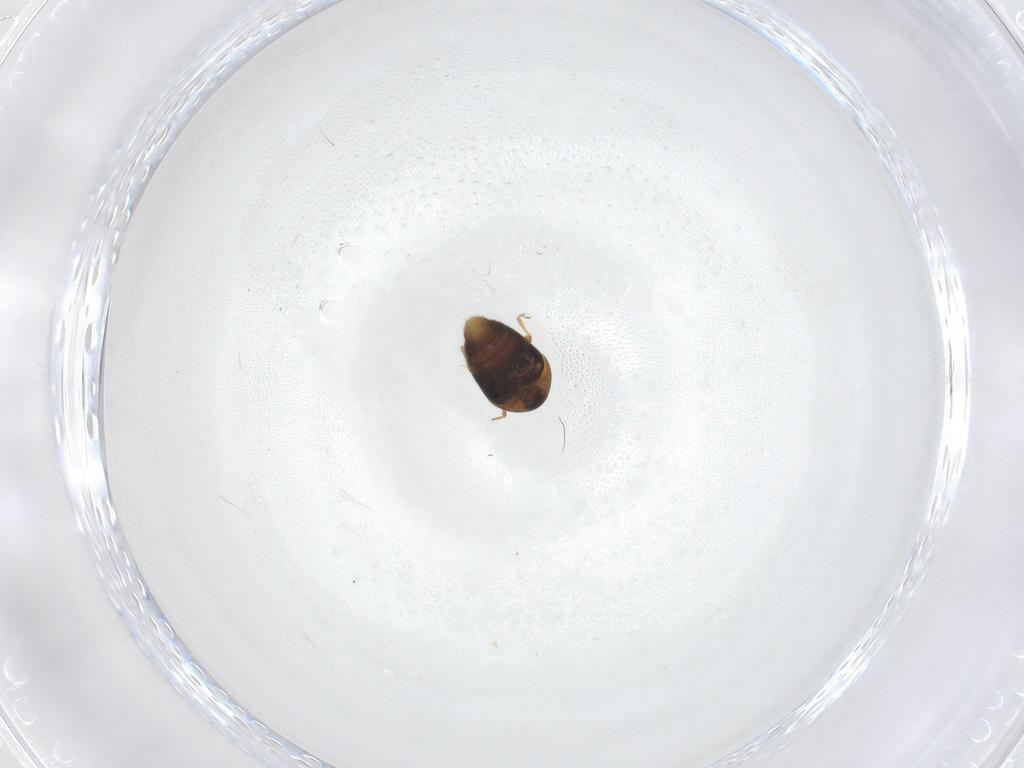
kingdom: Animalia
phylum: Arthropoda
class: Insecta
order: Coleoptera
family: Corylophidae
